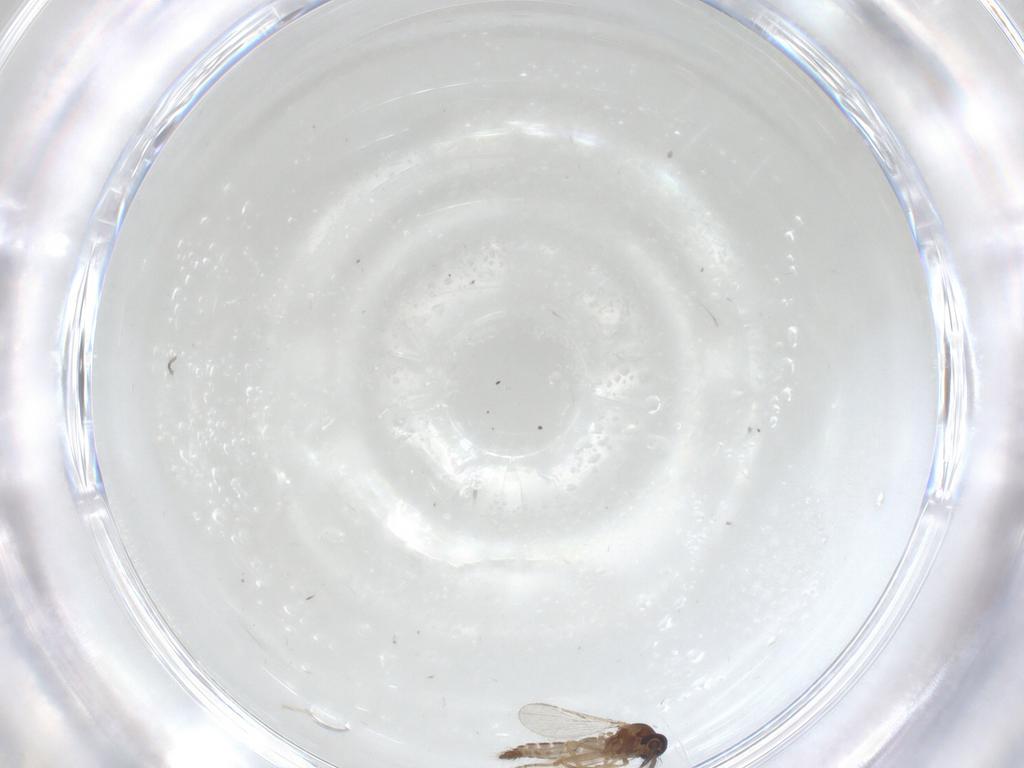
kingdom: Animalia
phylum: Arthropoda
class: Insecta
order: Diptera
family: Ceratopogonidae
